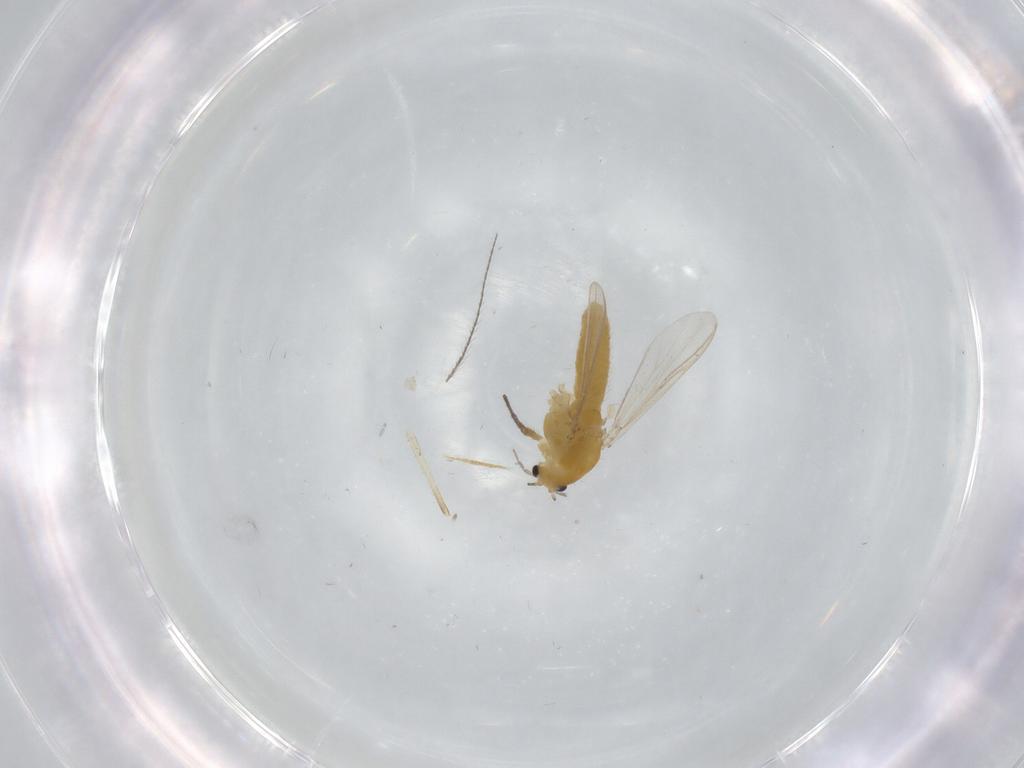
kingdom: Animalia
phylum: Arthropoda
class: Insecta
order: Diptera
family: Chironomidae
